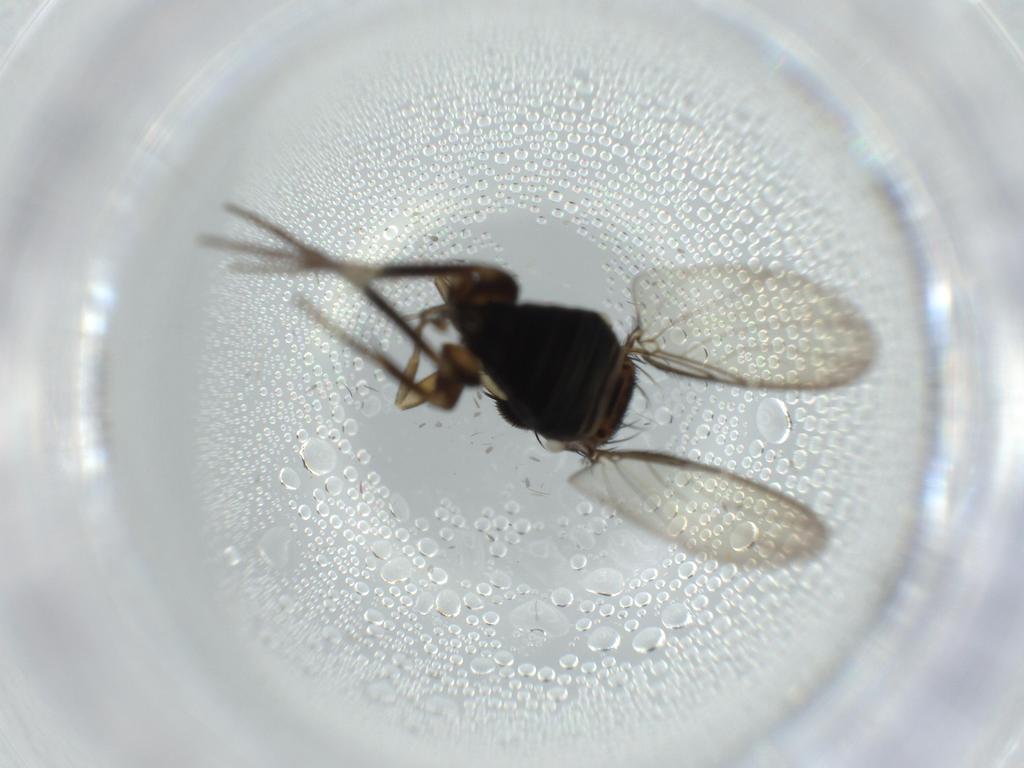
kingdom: Animalia
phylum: Arthropoda
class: Insecta
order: Diptera
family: Phoridae
